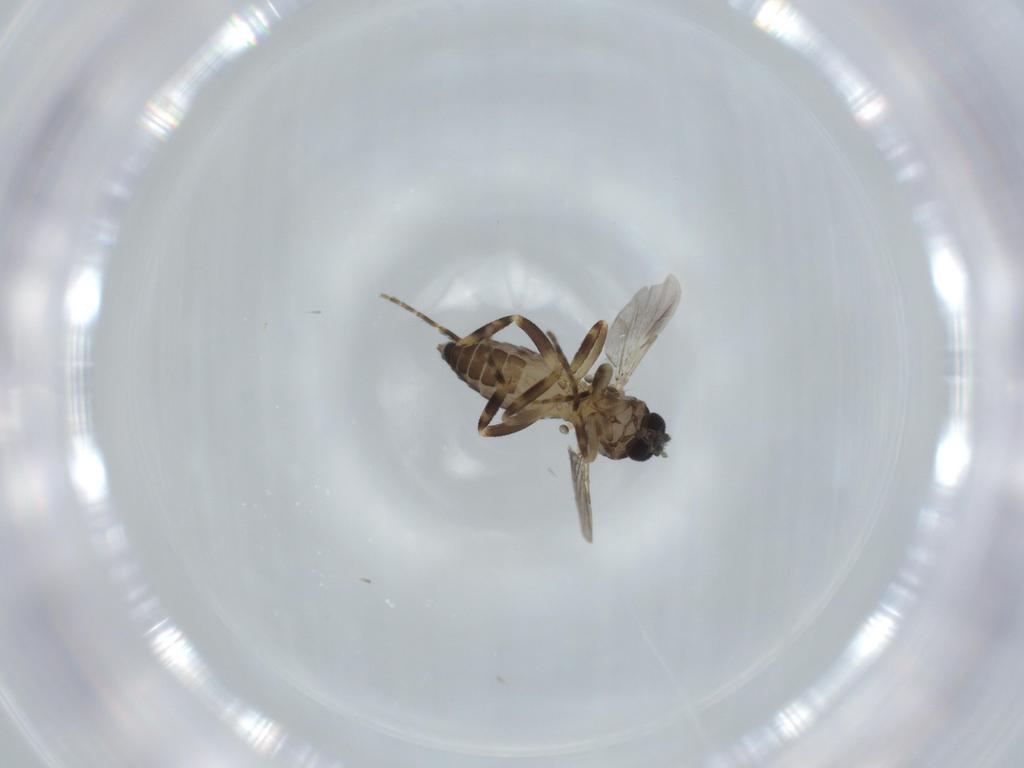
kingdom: Animalia
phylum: Arthropoda
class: Insecta
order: Diptera
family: Ceratopogonidae
